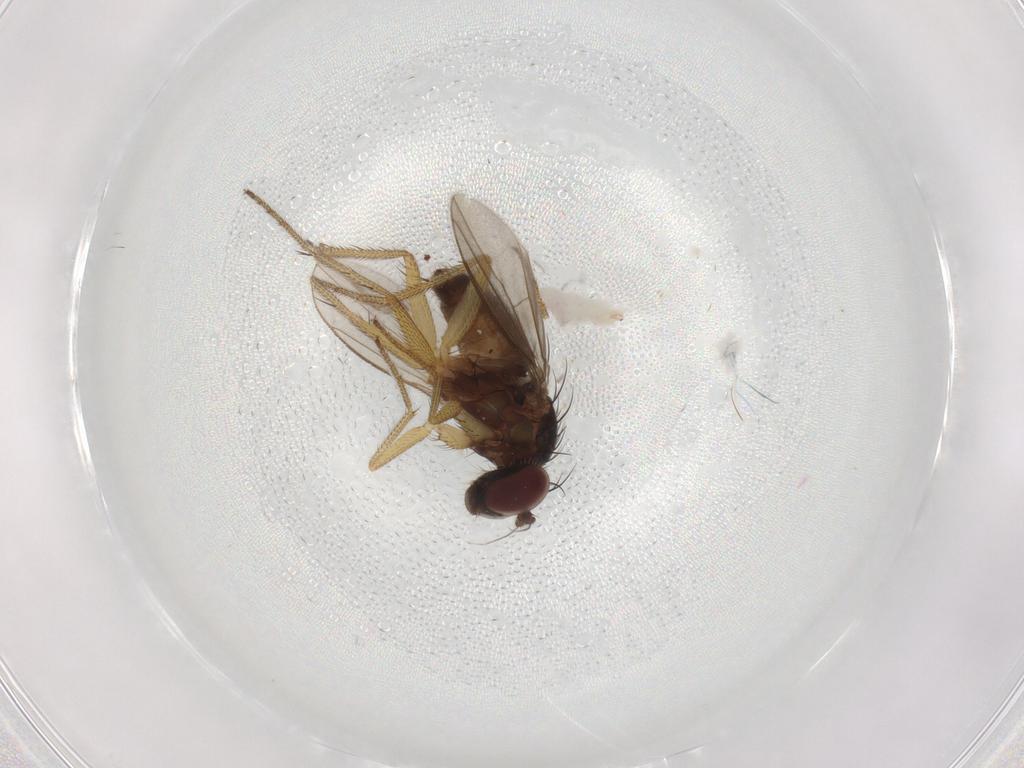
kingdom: Animalia
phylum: Arthropoda
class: Insecta
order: Diptera
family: Dolichopodidae
